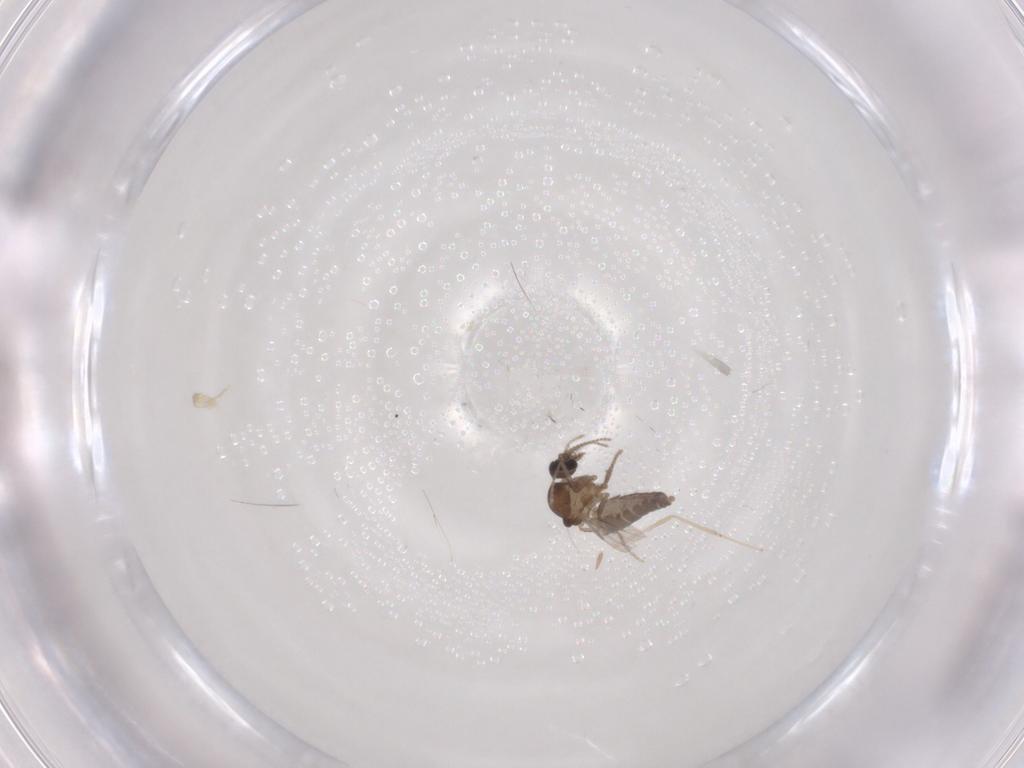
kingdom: Animalia
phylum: Arthropoda
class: Insecta
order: Diptera
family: Ceratopogonidae
